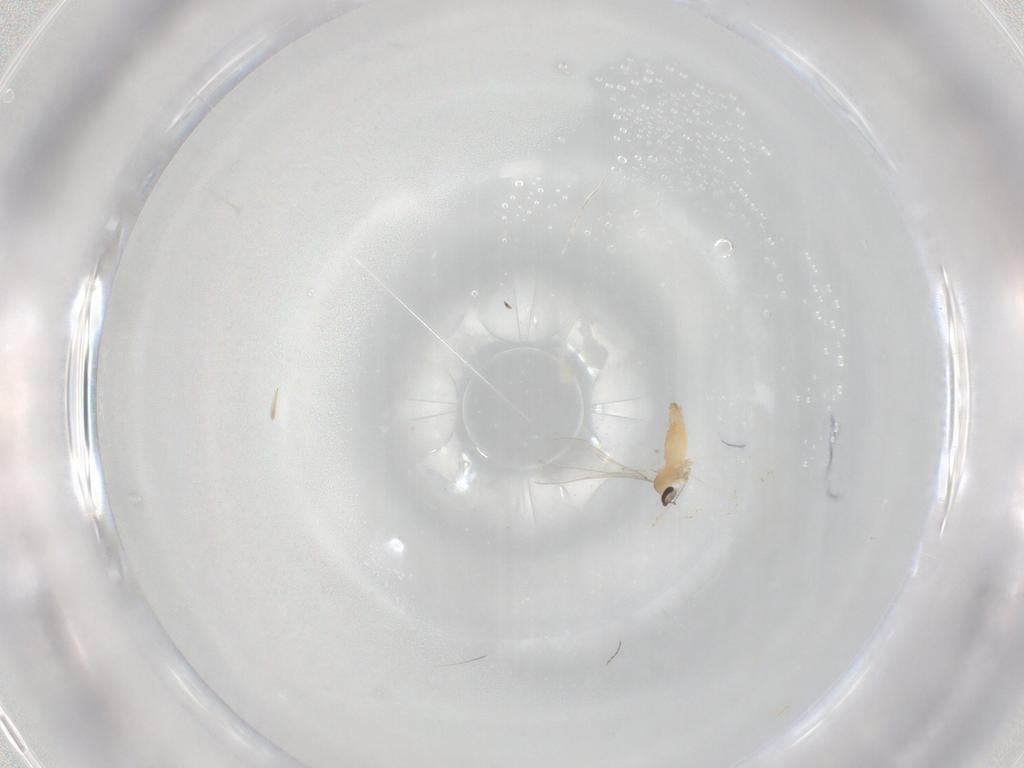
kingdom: Animalia
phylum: Arthropoda
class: Insecta
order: Diptera
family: Cecidomyiidae
